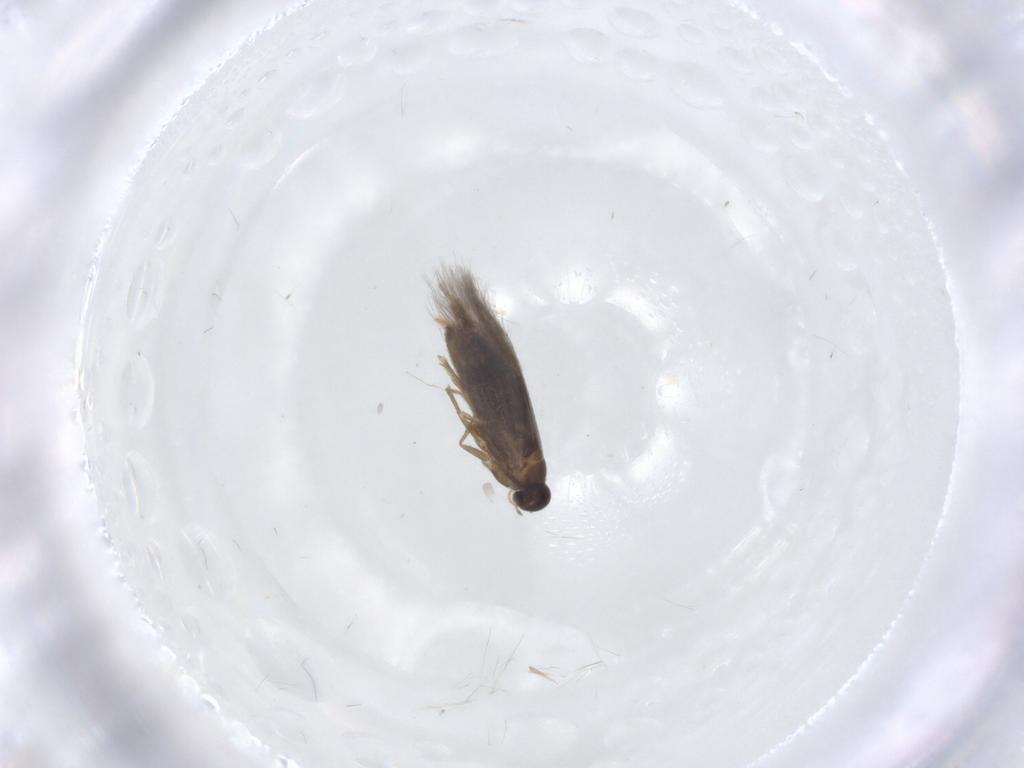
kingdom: Animalia
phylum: Arthropoda
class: Insecta
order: Lepidoptera
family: Heliozelidae
